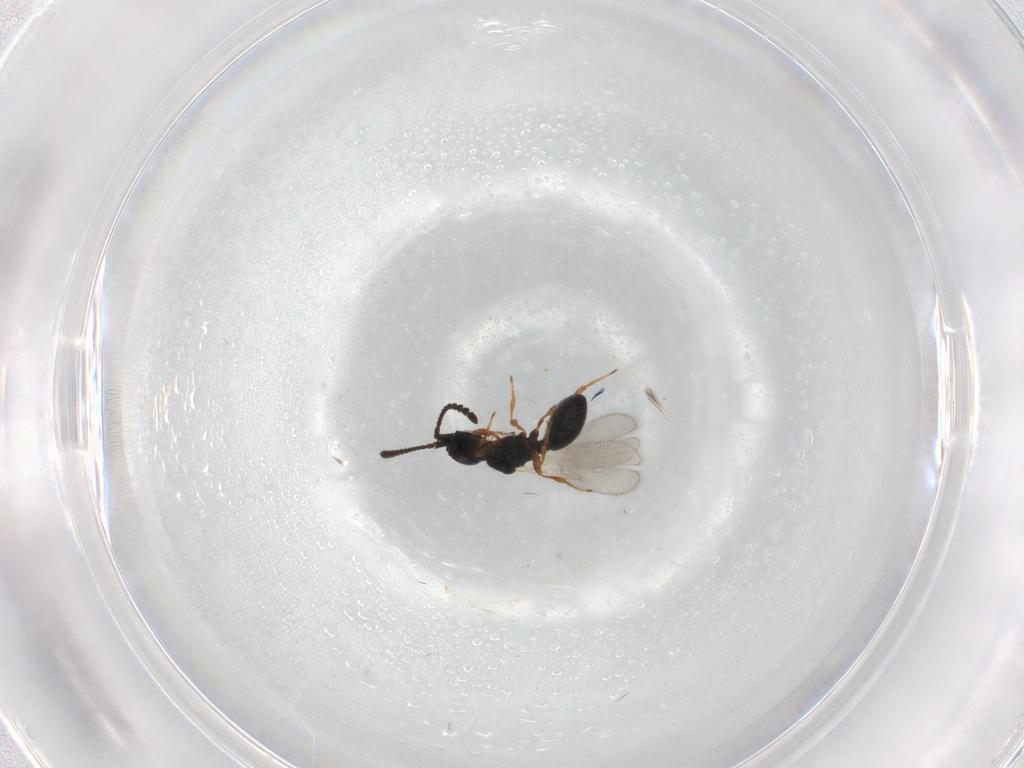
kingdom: Animalia
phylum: Arthropoda
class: Insecta
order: Hymenoptera
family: Diapriidae
